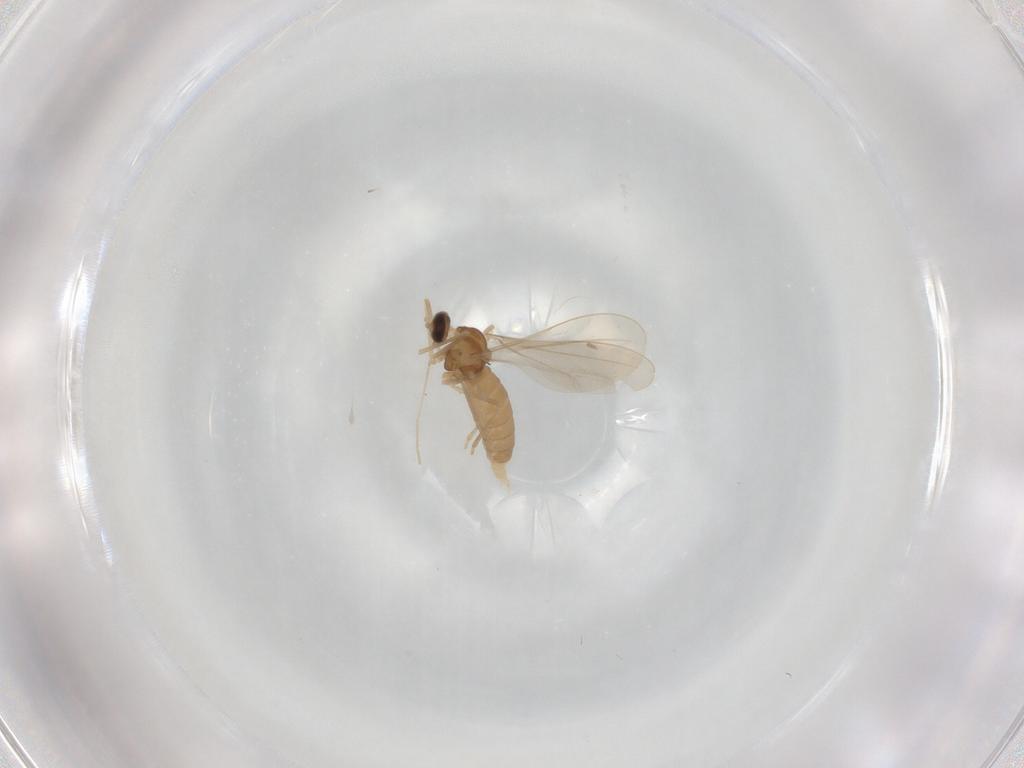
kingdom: Animalia
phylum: Arthropoda
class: Insecta
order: Diptera
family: Cecidomyiidae
